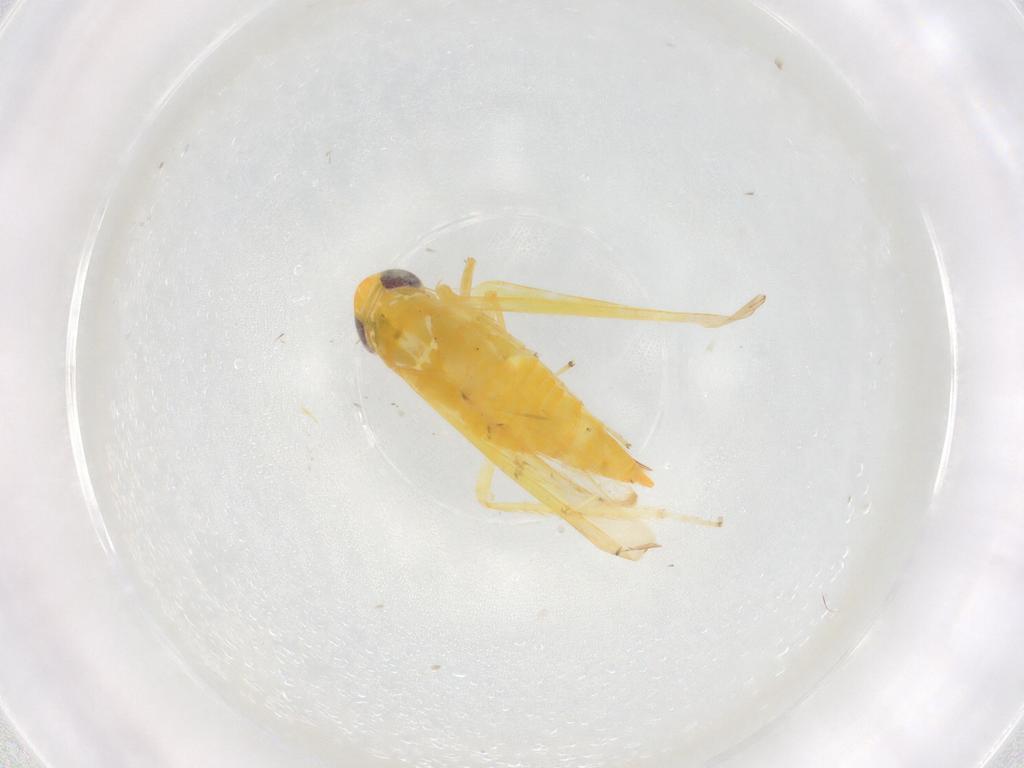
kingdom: Animalia
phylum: Arthropoda
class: Insecta
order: Hemiptera
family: Cicadellidae
